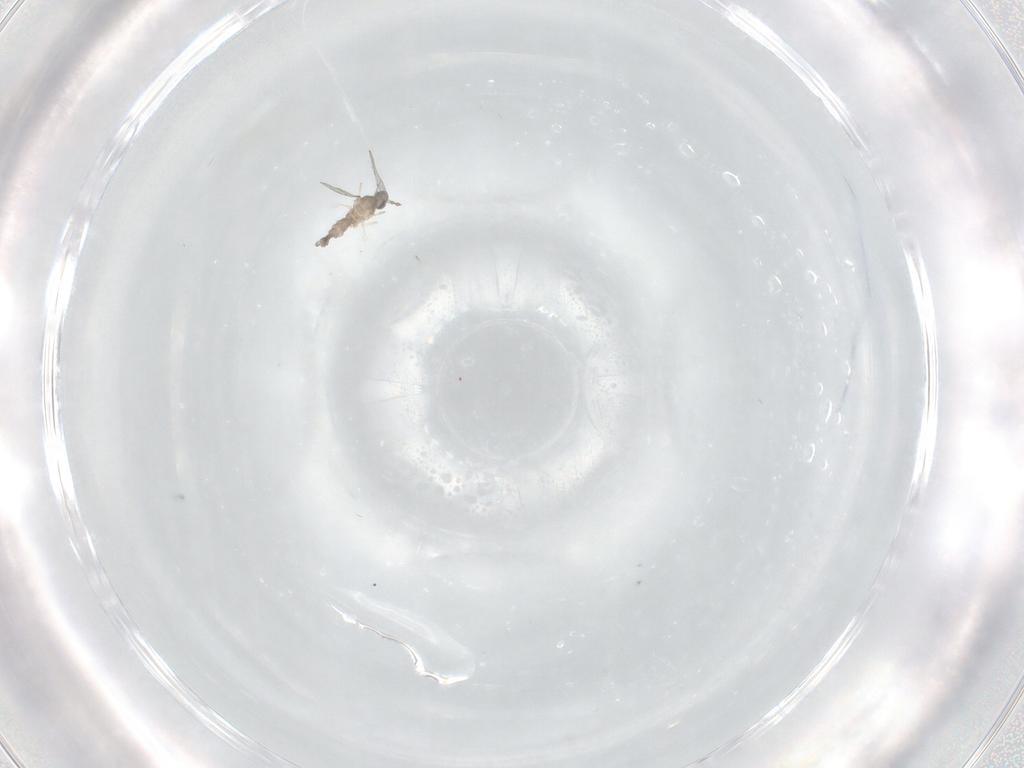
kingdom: Animalia
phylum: Arthropoda
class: Insecta
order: Diptera
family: Cecidomyiidae
